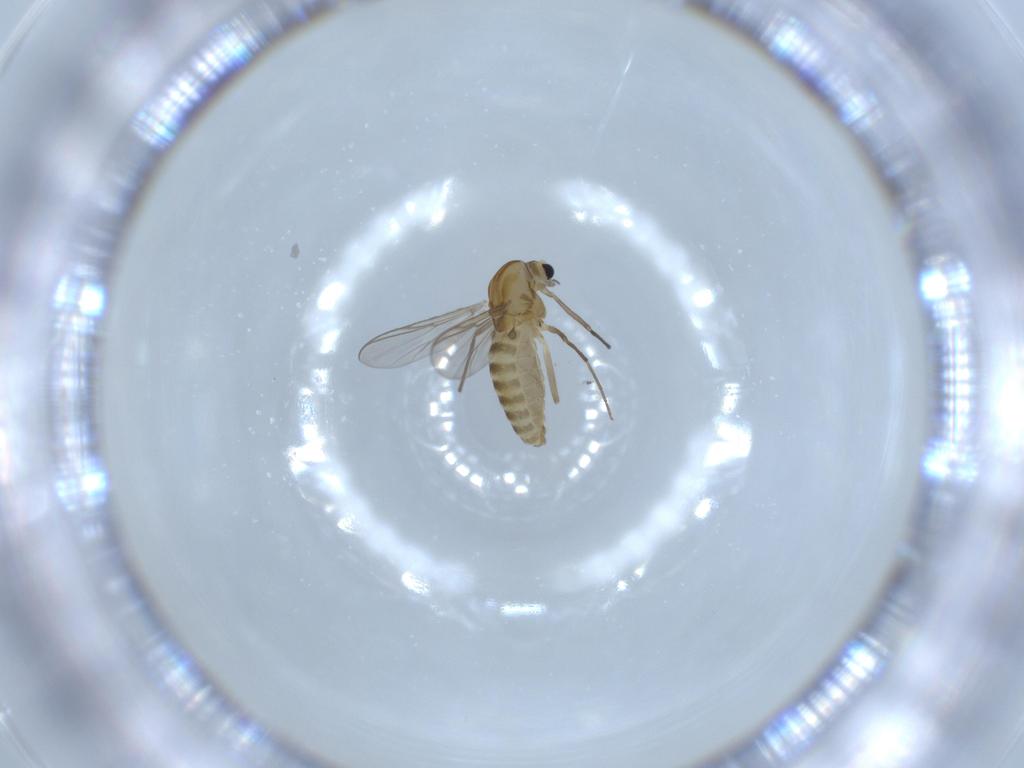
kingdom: Animalia
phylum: Arthropoda
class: Insecta
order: Diptera
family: Chironomidae
